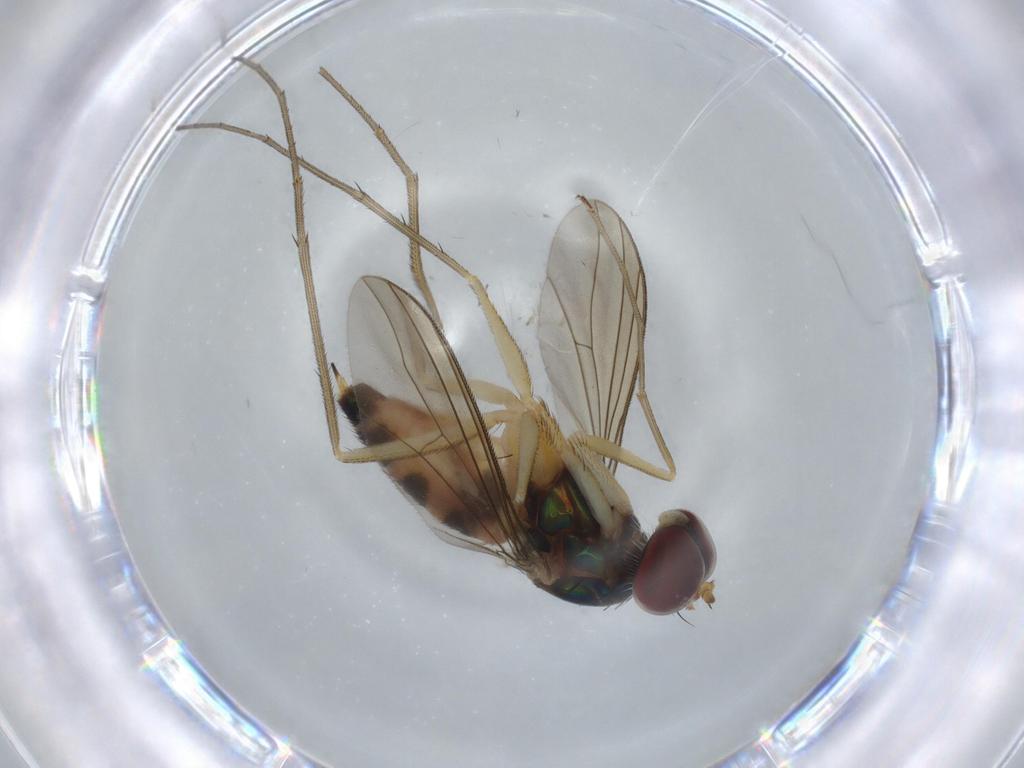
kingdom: Animalia
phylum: Arthropoda
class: Insecta
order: Diptera
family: Dolichopodidae
